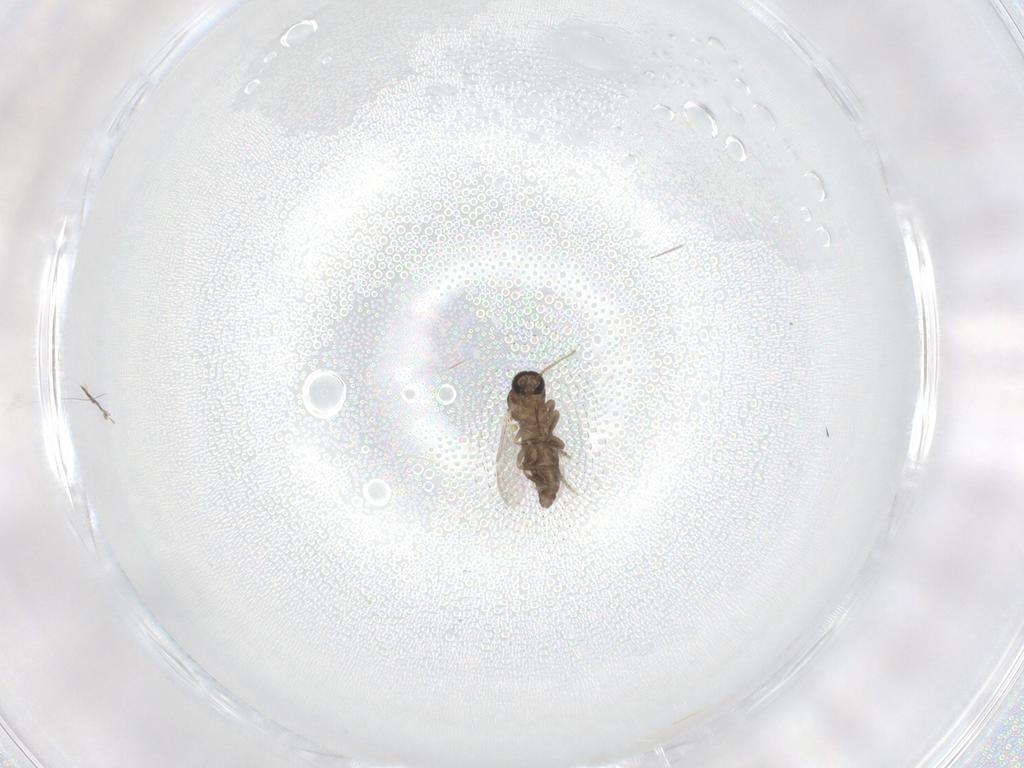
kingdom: Animalia
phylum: Arthropoda
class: Insecta
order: Diptera
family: Ceratopogonidae
